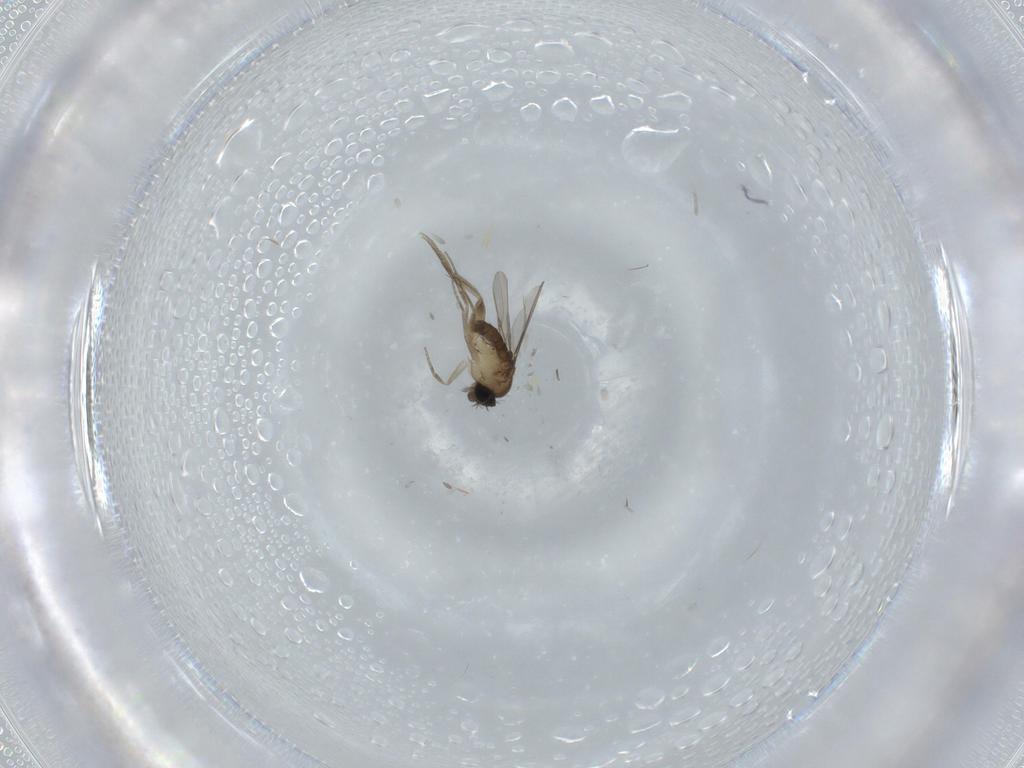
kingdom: Animalia
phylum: Arthropoda
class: Insecta
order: Diptera
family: Phoridae
